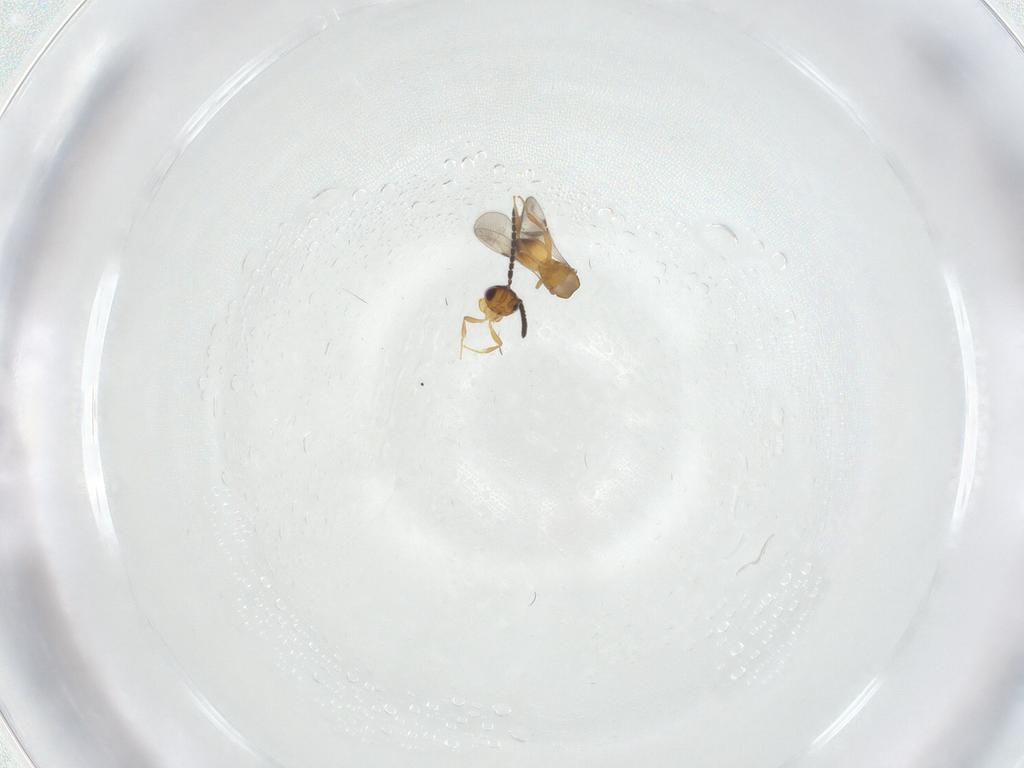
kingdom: Animalia
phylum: Arthropoda
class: Insecta
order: Hymenoptera
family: Ceraphronidae
